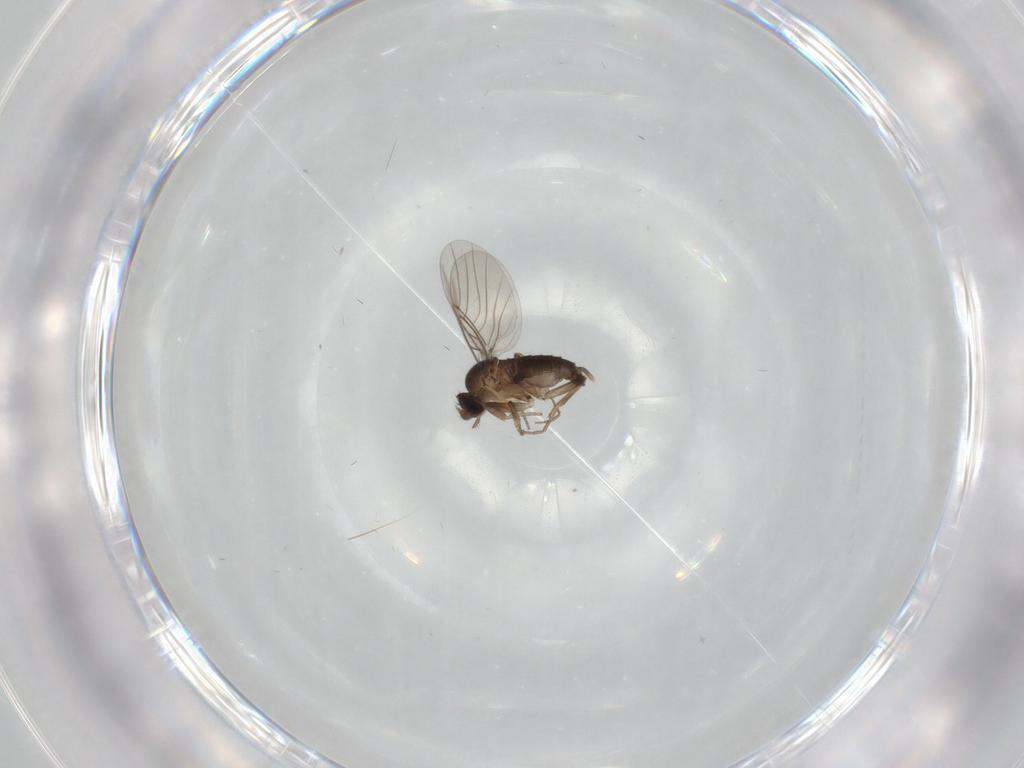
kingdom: Animalia
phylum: Arthropoda
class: Insecta
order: Diptera
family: Phoridae
